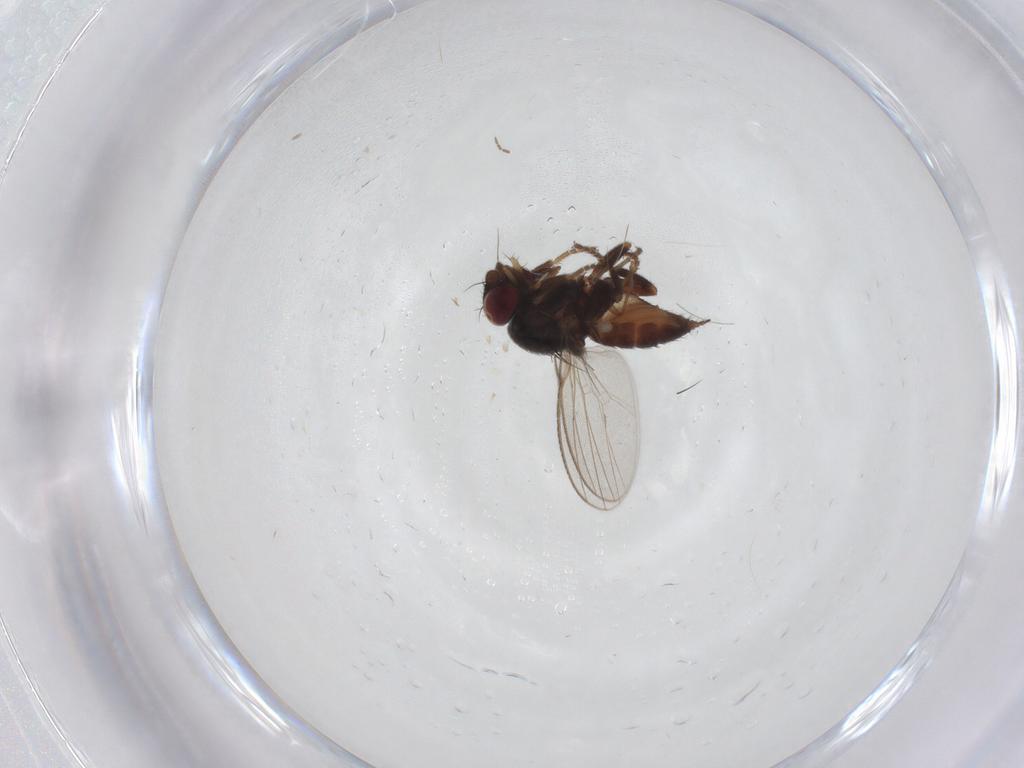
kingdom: Animalia
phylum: Arthropoda
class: Insecta
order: Diptera
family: Milichiidae
